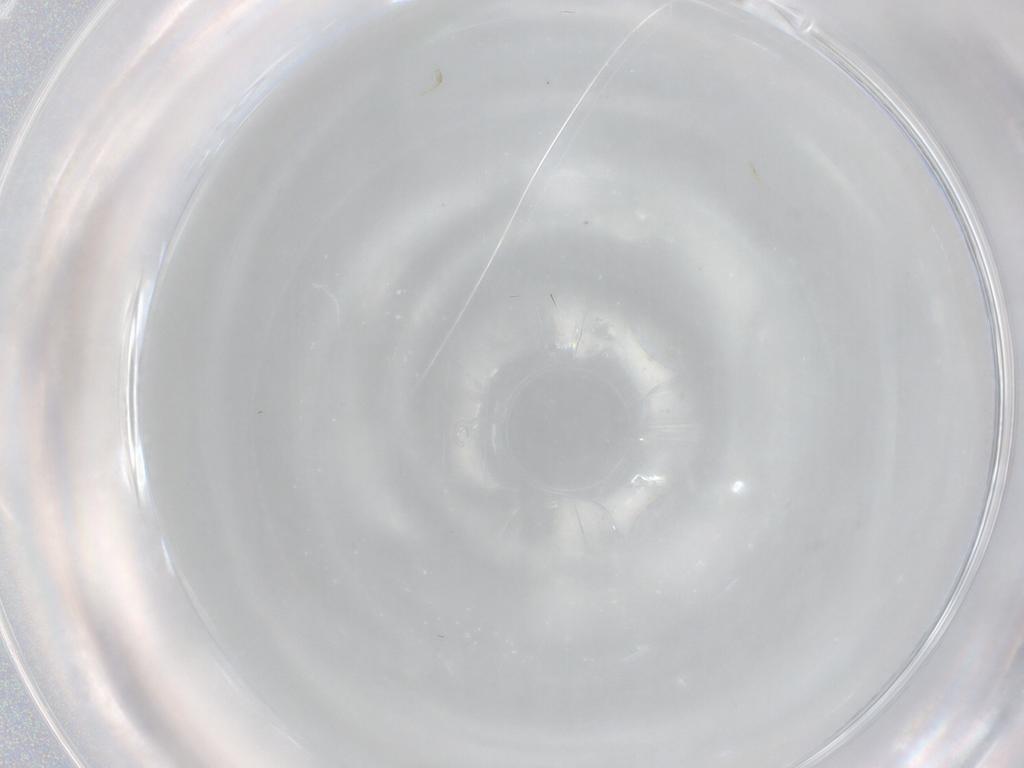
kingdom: Animalia
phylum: Arthropoda
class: Insecta
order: Hymenoptera
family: Mymaridae
